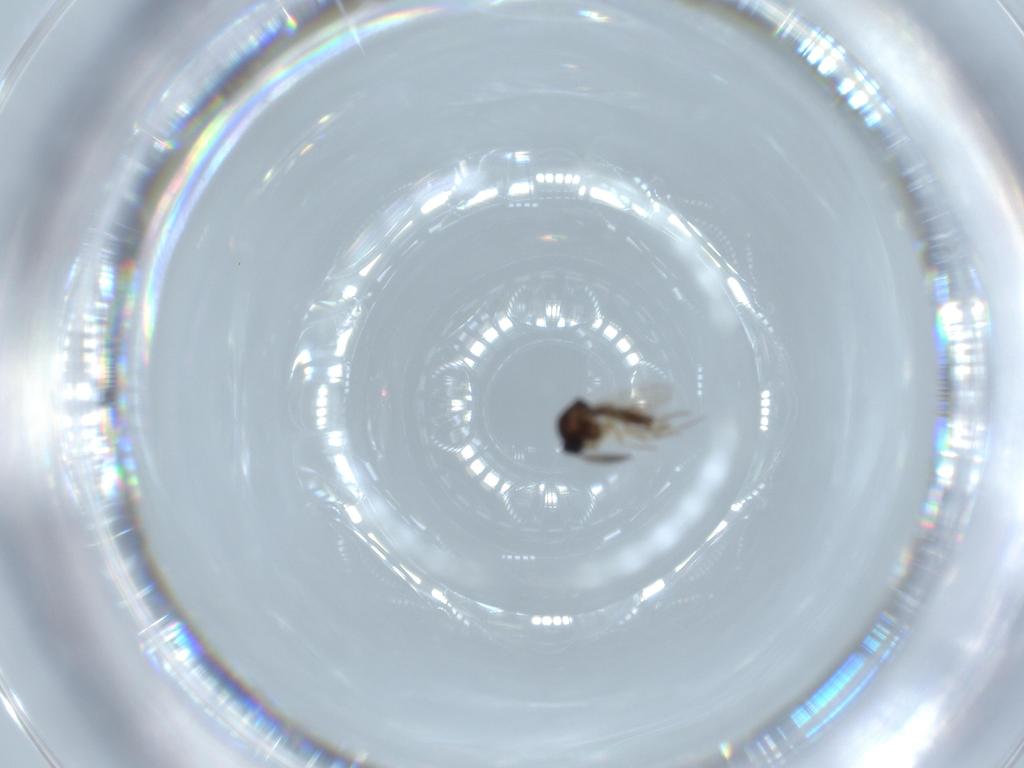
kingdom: Animalia
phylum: Arthropoda
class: Insecta
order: Diptera
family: Ceratopogonidae
